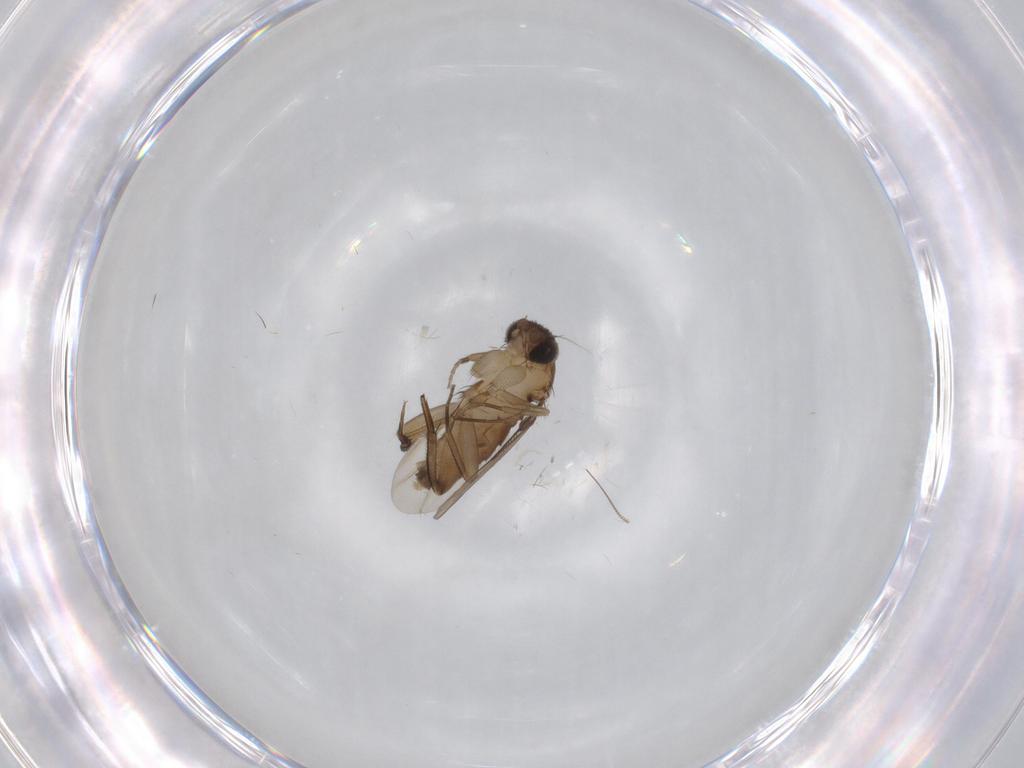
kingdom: Animalia
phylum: Arthropoda
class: Insecta
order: Diptera
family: Phoridae
